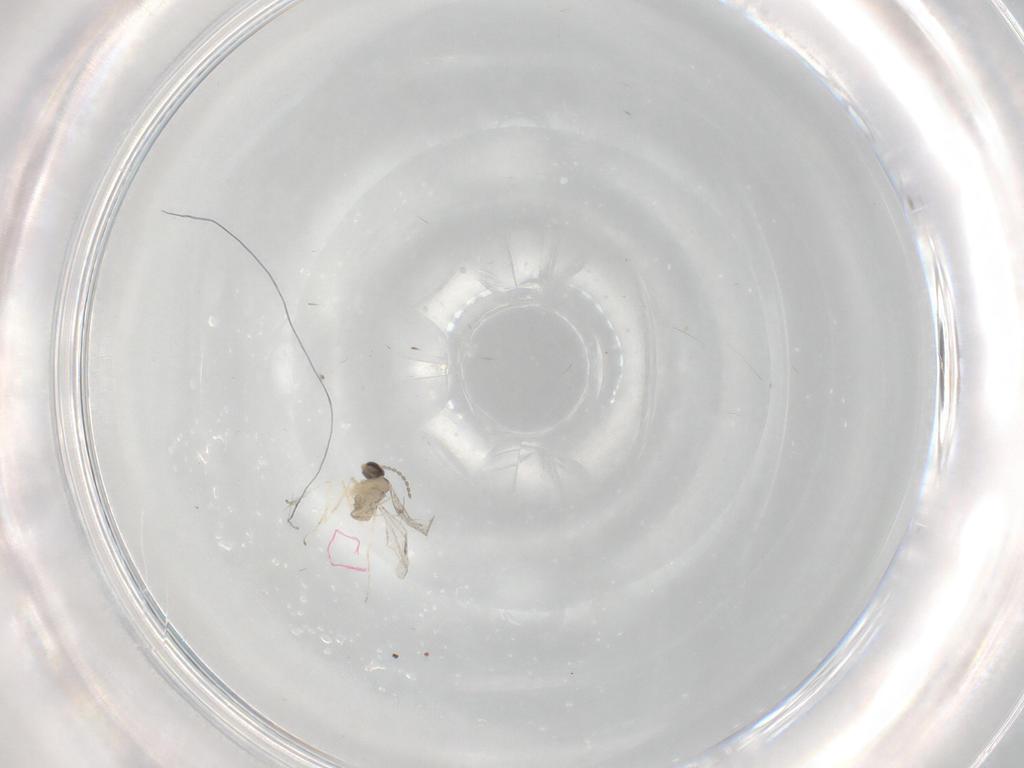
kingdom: Animalia
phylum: Arthropoda
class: Insecta
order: Diptera
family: Cecidomyiidae
